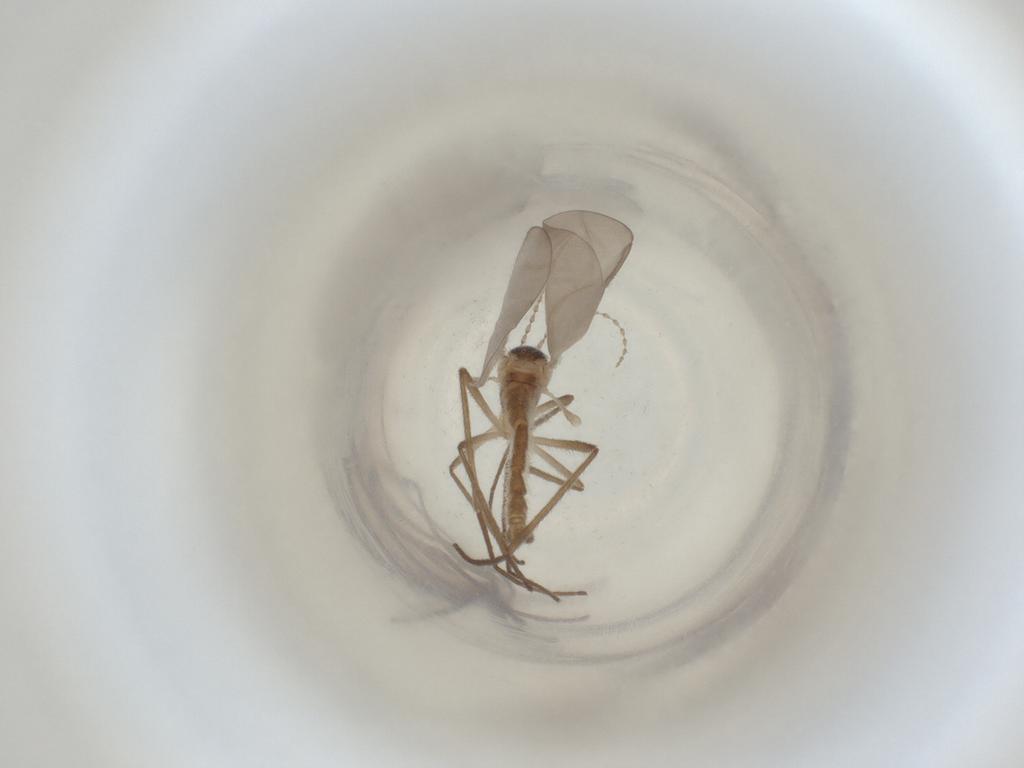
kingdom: Animalia
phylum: Arthropoda
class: Insecta
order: Diptera
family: Cecidomyiidae
